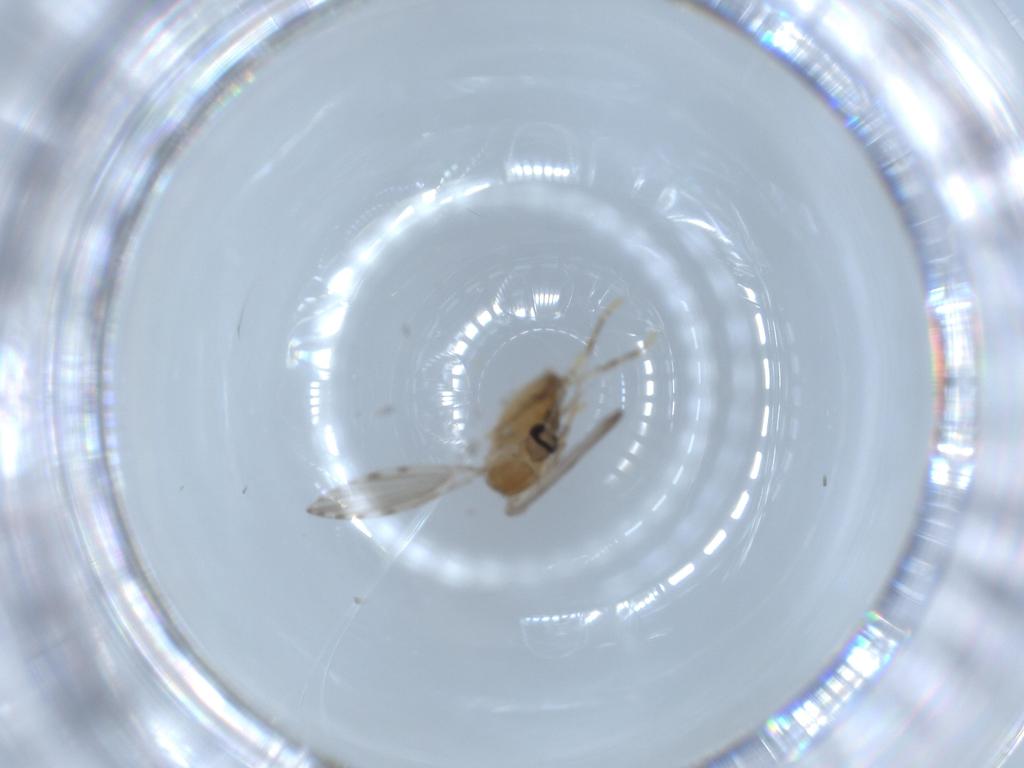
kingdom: Animalia
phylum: Arthropoda
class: Insecta
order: Diptera
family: Psychodidae
